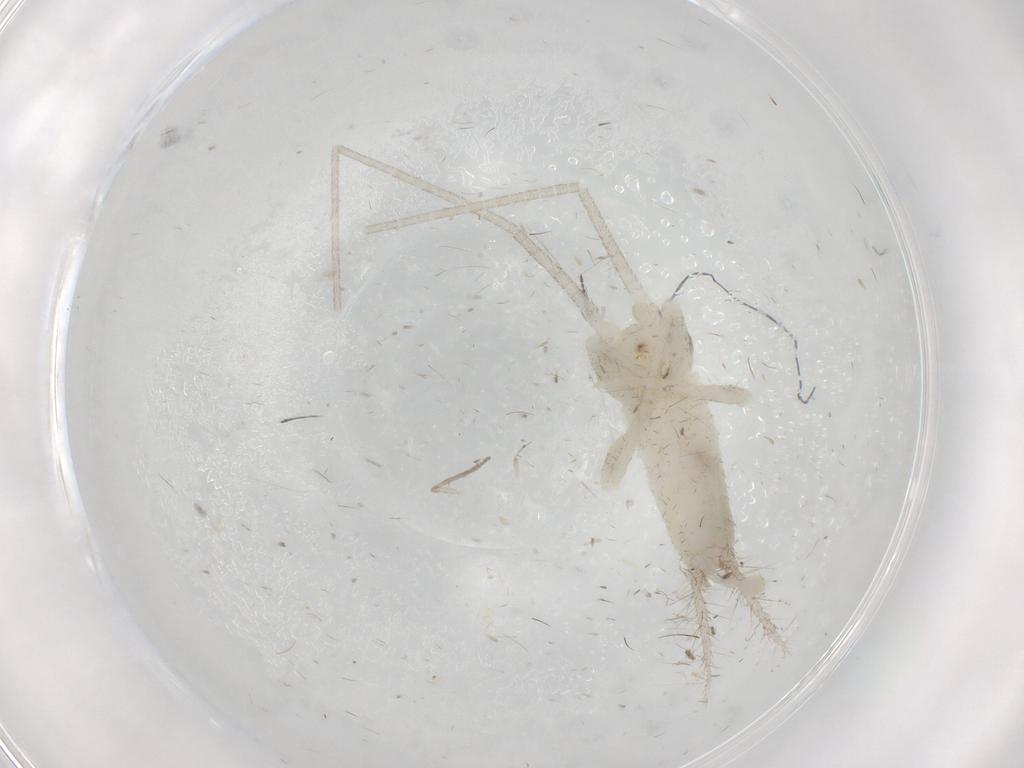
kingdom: Animalia
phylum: Arthropoda
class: Insecta
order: Orthoptera
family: Gryllidae
